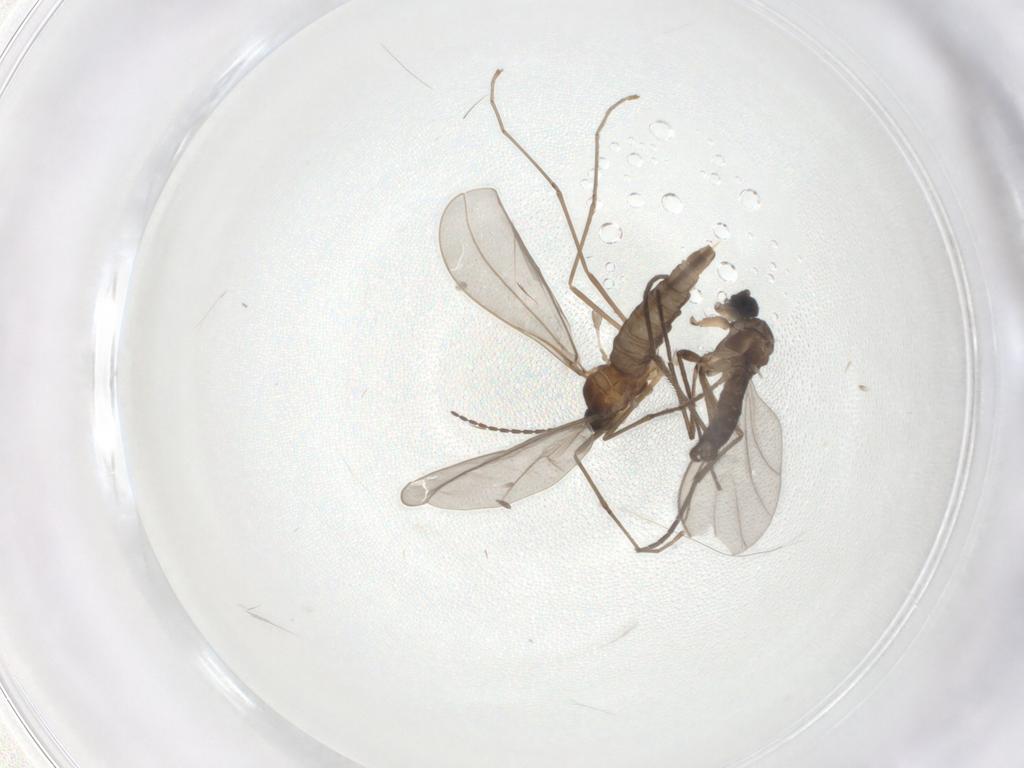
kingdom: Animalia
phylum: Arthropoda
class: Insecta
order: Diptera
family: Sciaridae
